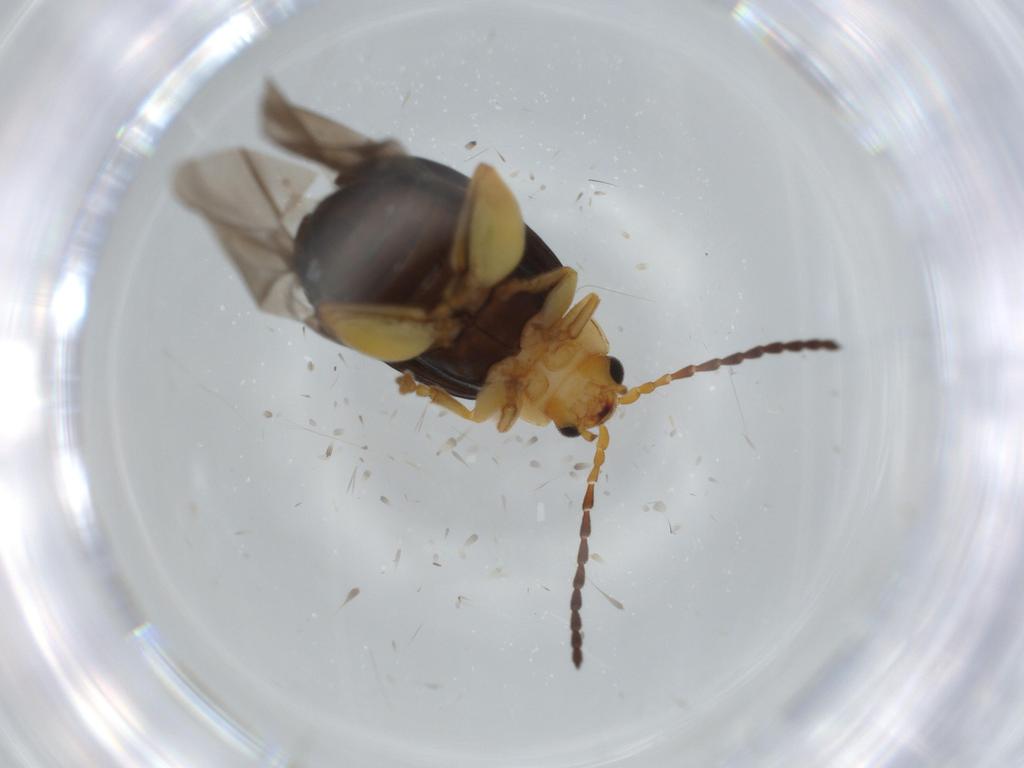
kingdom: Animalia
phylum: Arthropoda
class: Insecta
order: Coleoptera
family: Chrysomelidae
